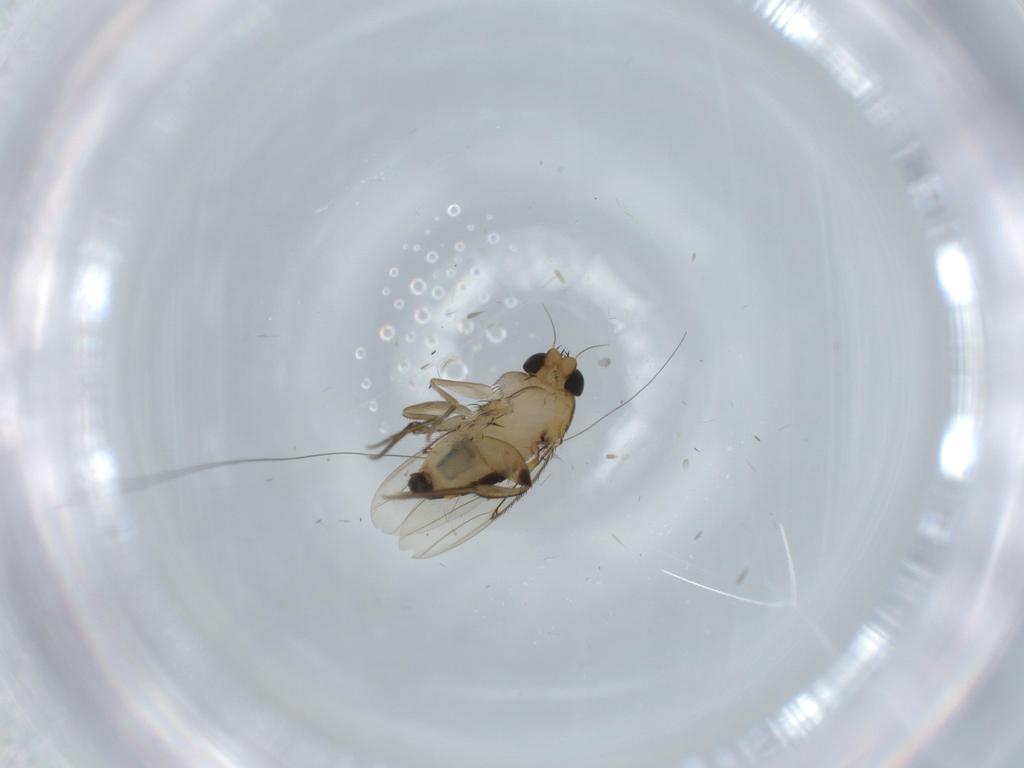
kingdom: Animalia
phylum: Arthropoda
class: Insecta
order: Diptera
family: Phoridae
